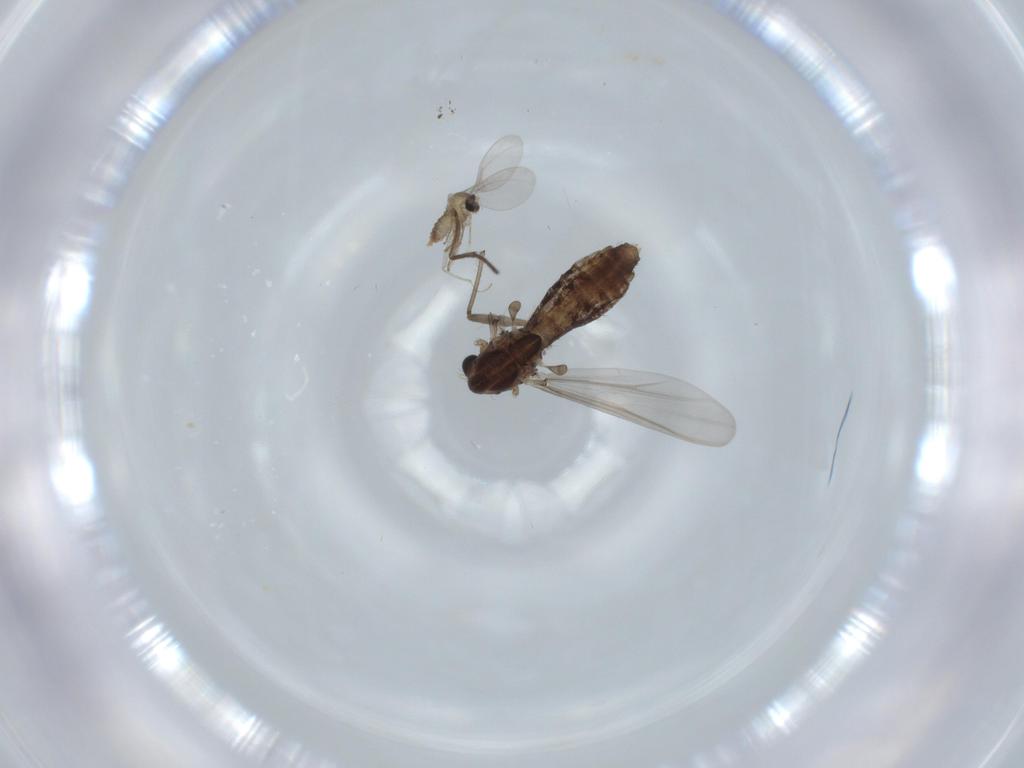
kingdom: Animalia
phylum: Arthropoda
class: Insecta
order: Diptera
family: Chironomidae
